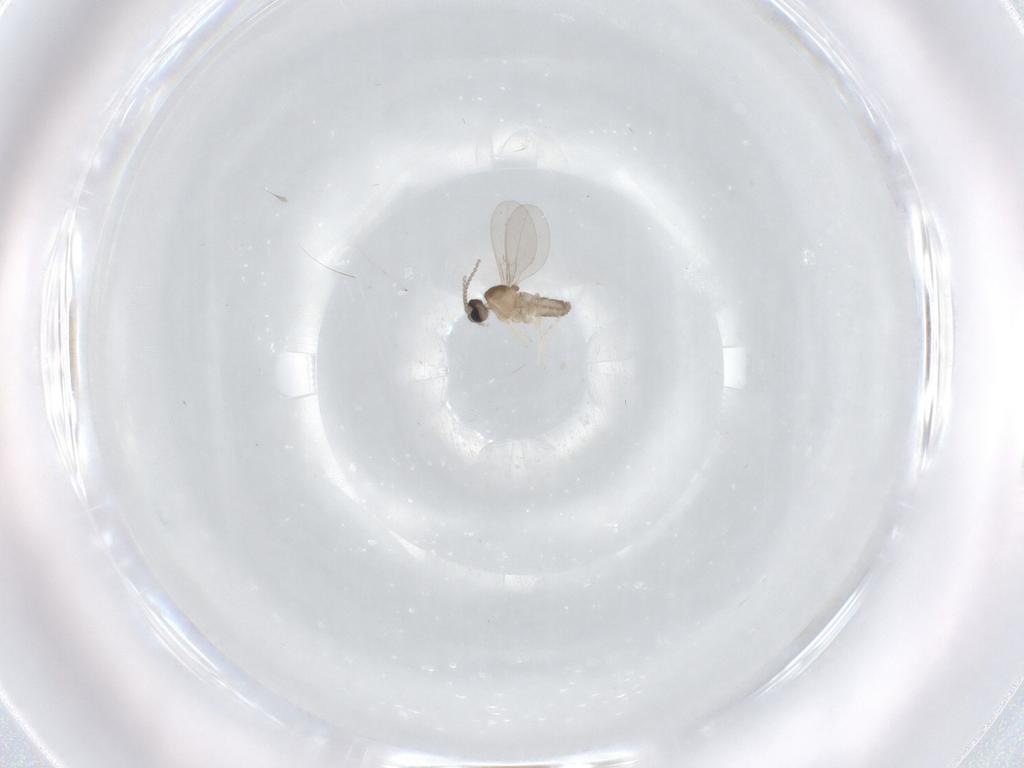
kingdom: Animalia
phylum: Arthropoda
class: Insecta
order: Diptera
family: Cecidomyiidae
